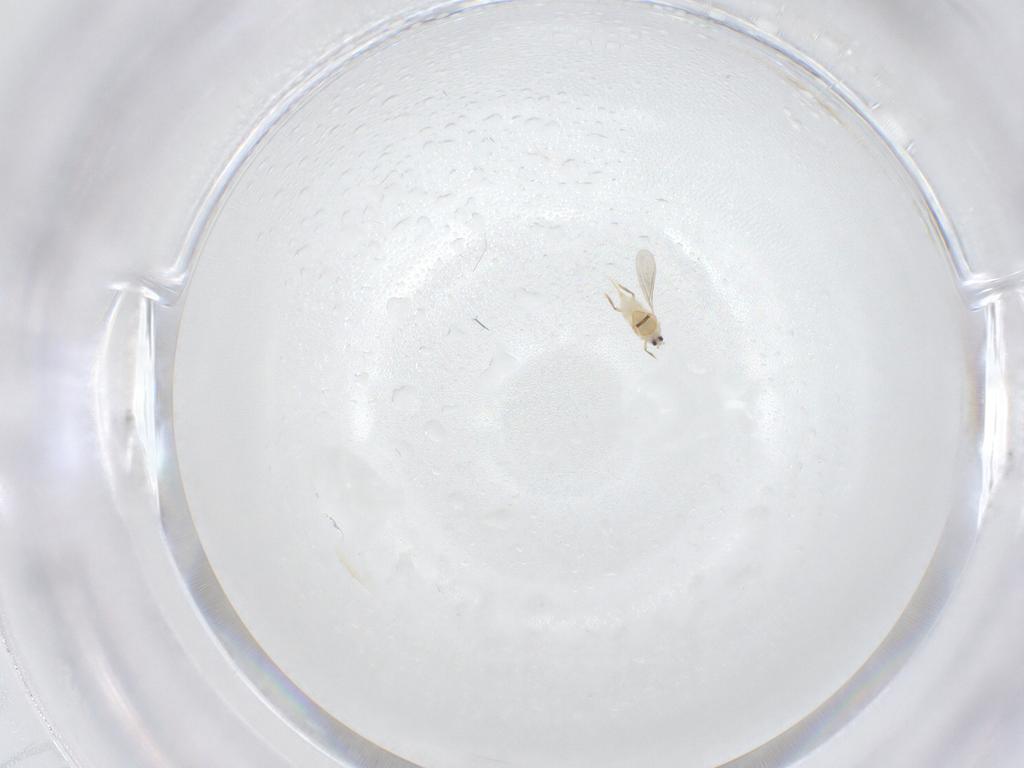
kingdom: Animalia
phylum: Arthropoda
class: Insecta
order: Hemiptera
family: Diaspididae
